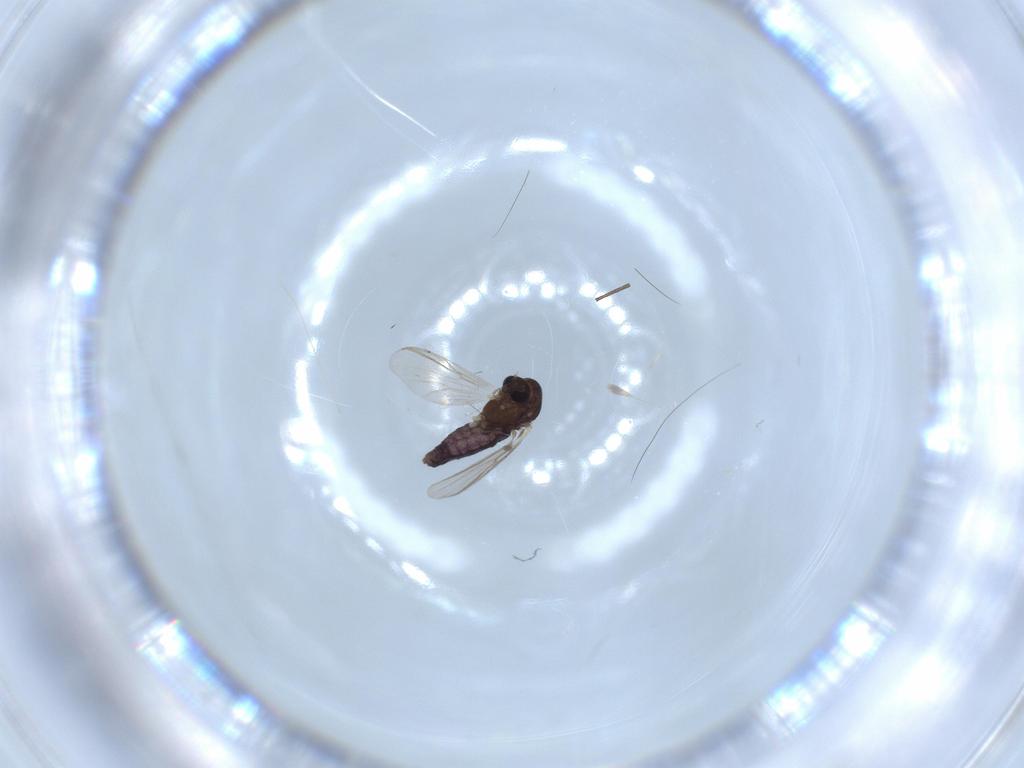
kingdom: Animalia
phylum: Arthropoda
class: Insecta
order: Diptera
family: Chironomidae
